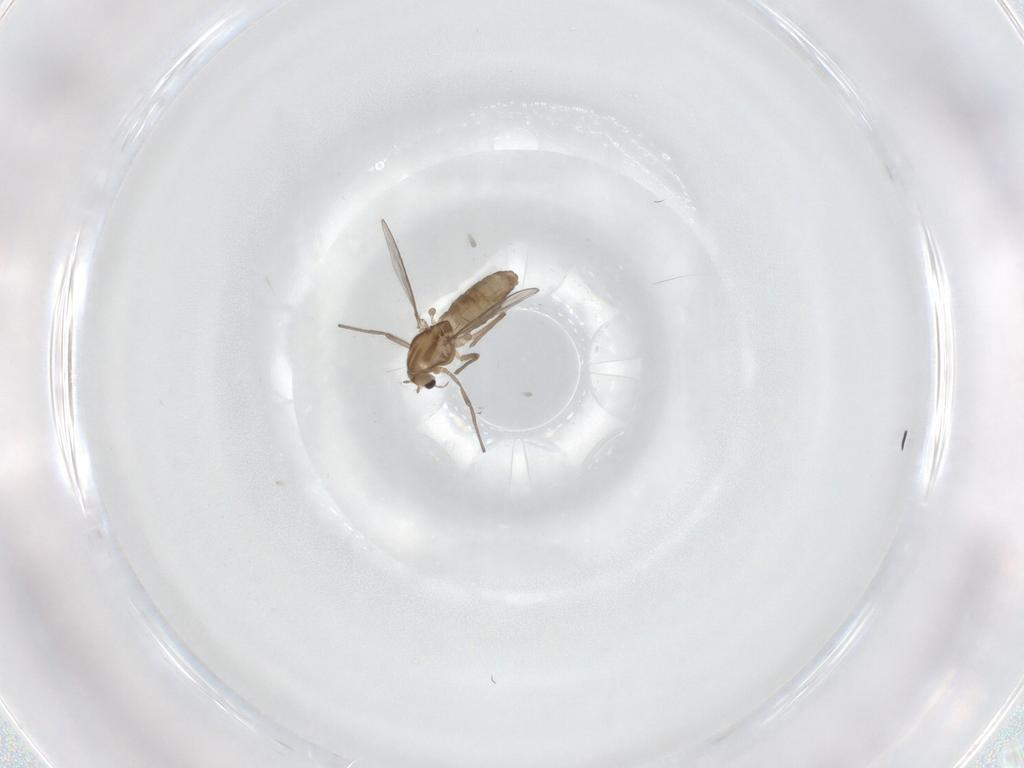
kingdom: Animalia
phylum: Arthropoda
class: Insecta
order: Diptera
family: Chironomidae
